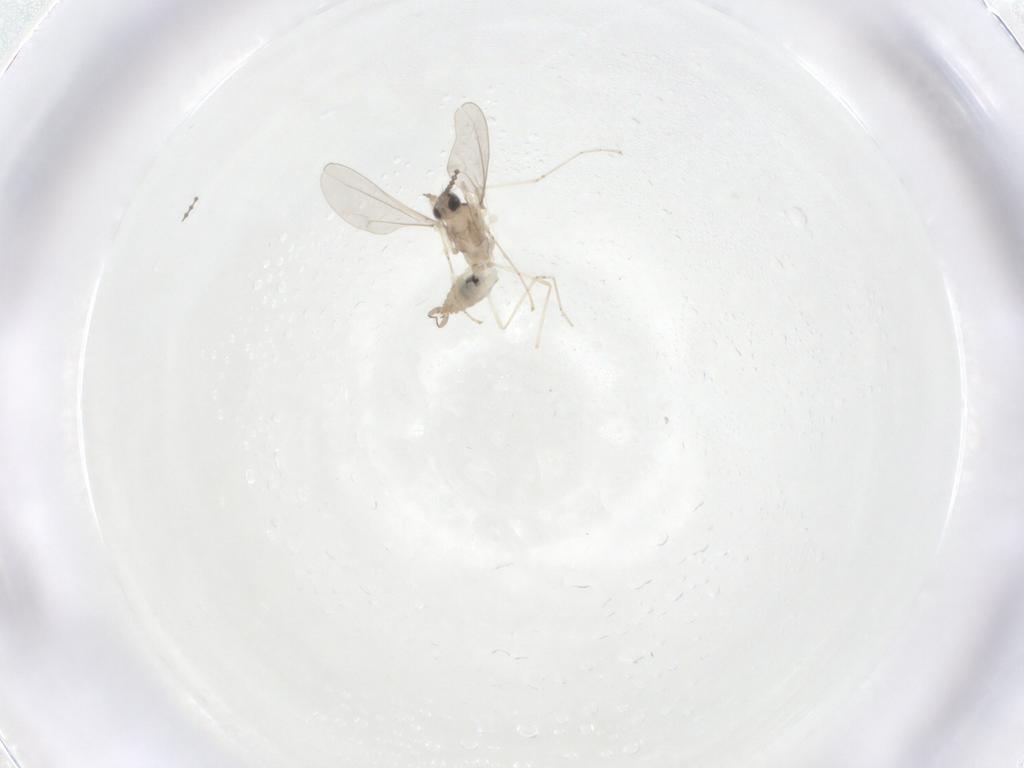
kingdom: Animalia
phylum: Arthropoda
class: Insecta
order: Diptera
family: Cecidomyiidae
